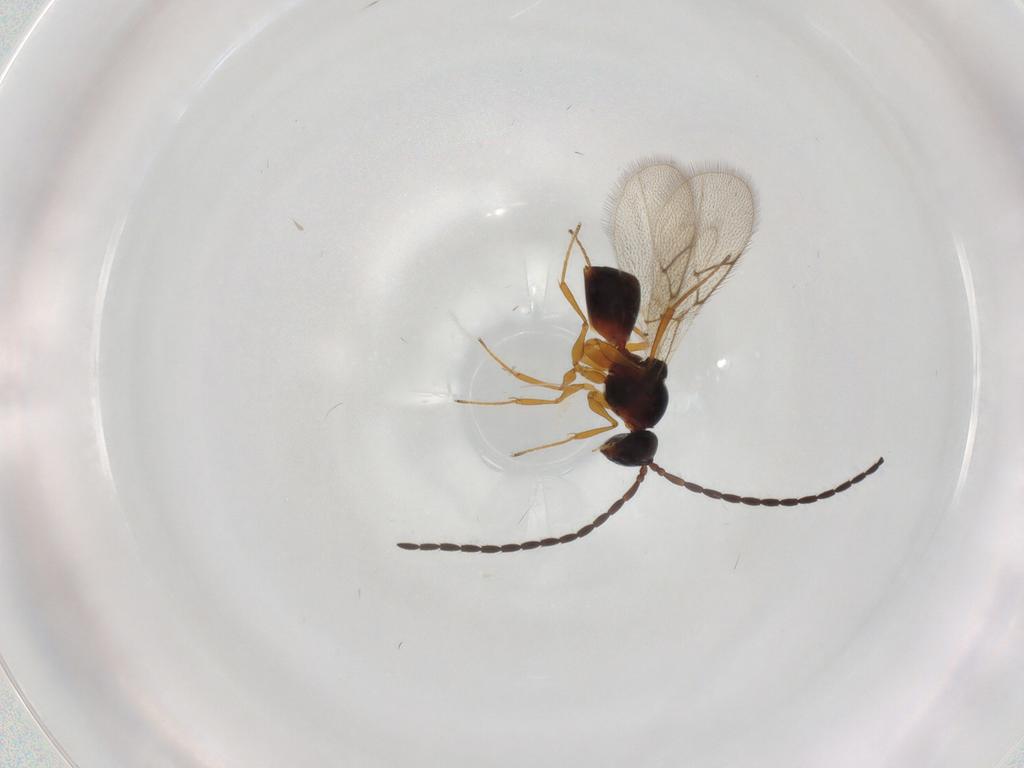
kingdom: Animalia
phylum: Arthropoda
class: Insecta
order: Hymenoptera
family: Figitidae
